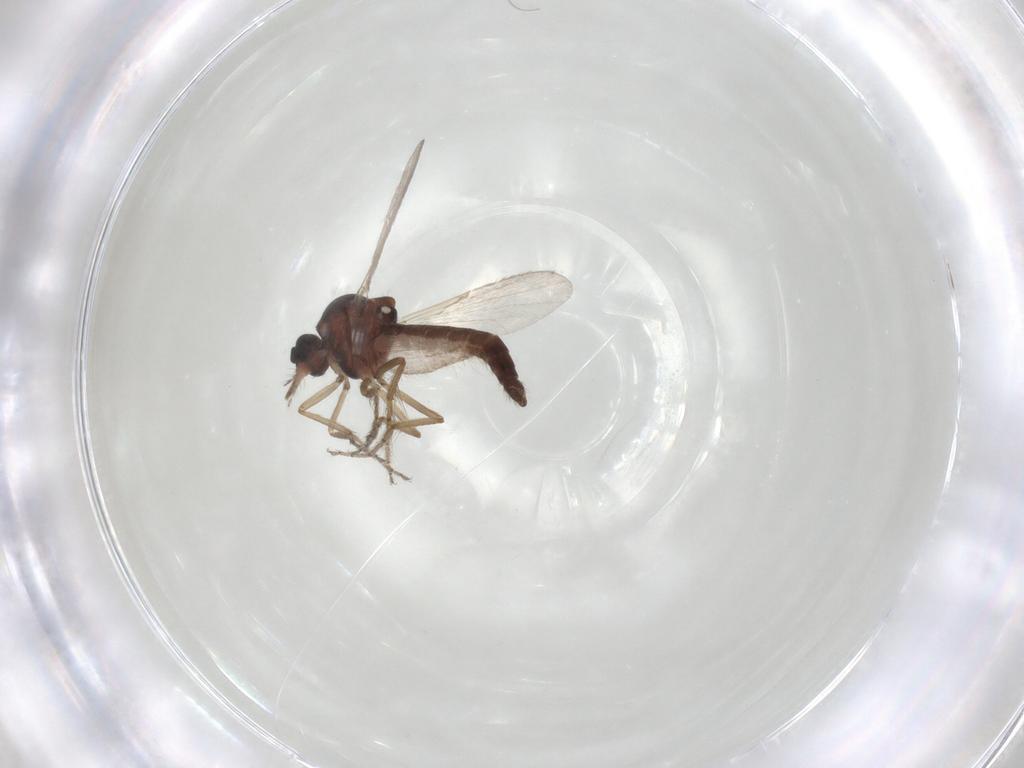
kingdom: Animalia
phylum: Arthropoda
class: Insecta
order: Diptera
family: Ceratopogonidae
